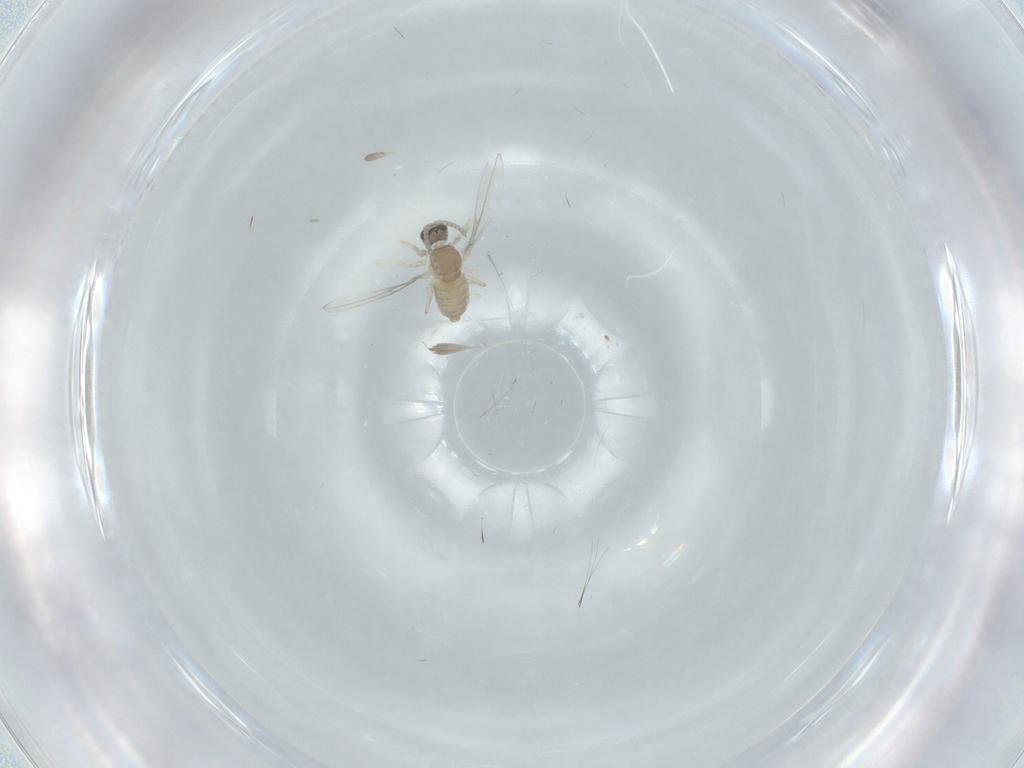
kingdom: Animalia
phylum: Arthropoda
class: Insecta
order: Diptera
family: Cecidomyiidae
